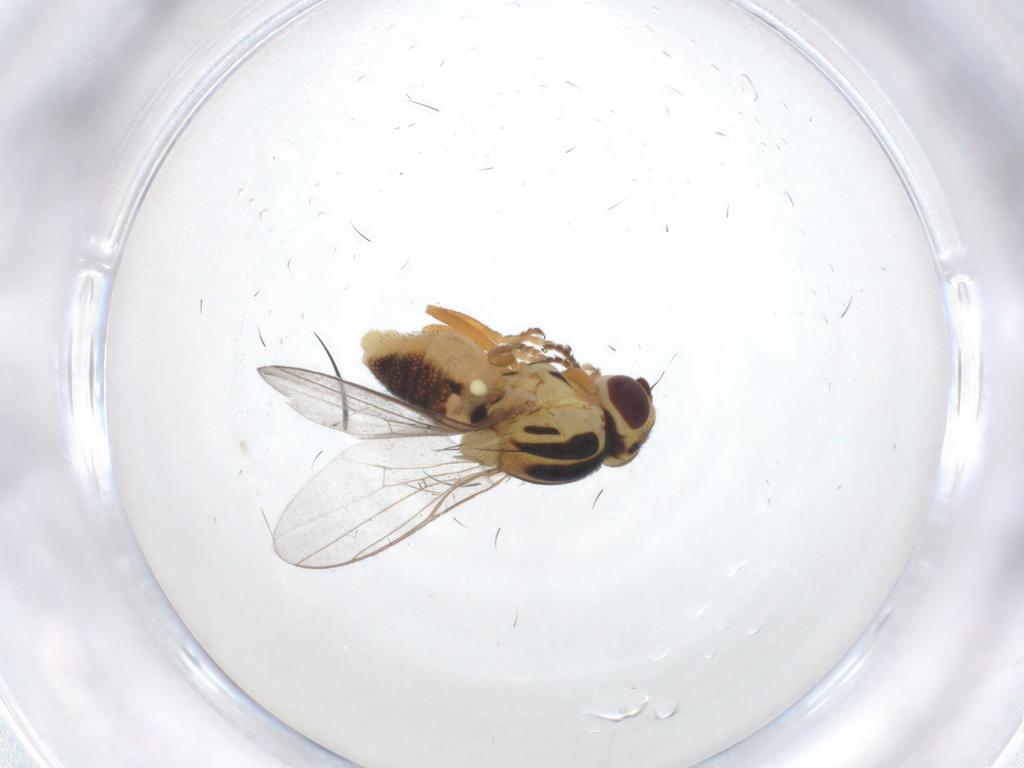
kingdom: Animalia
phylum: Arthropoda
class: Insecta
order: Diptera
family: Chloropidae
